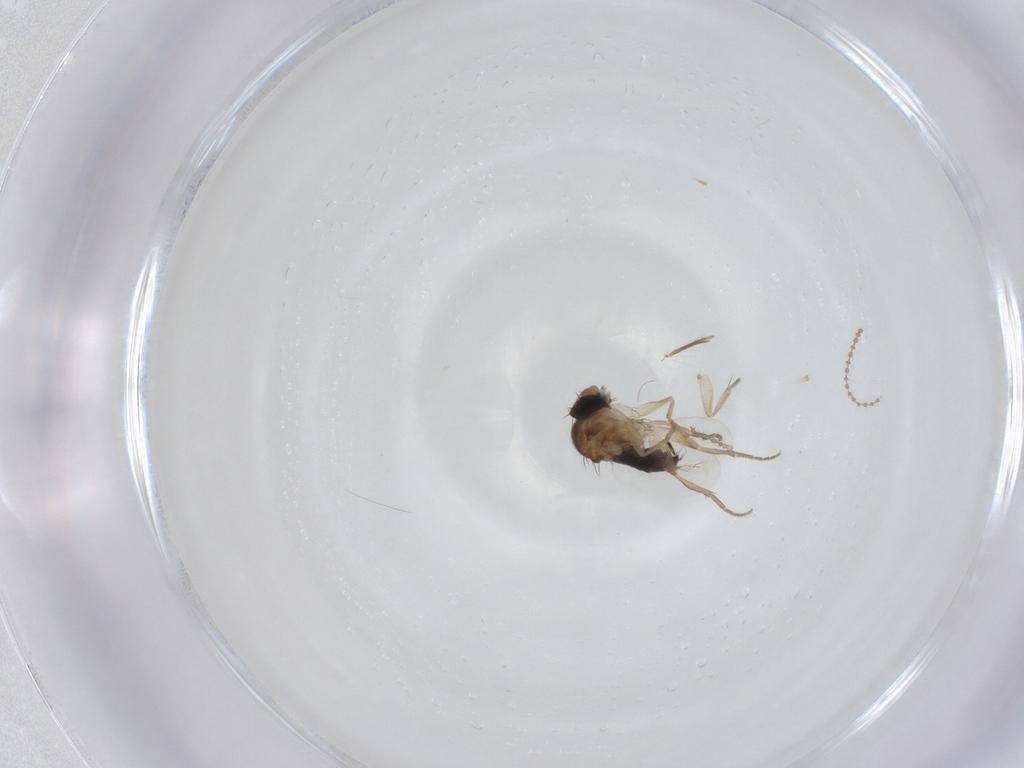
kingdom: Animalia
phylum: Arthropoda
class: Insecta
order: Diptera
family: Cecidomyiidae
